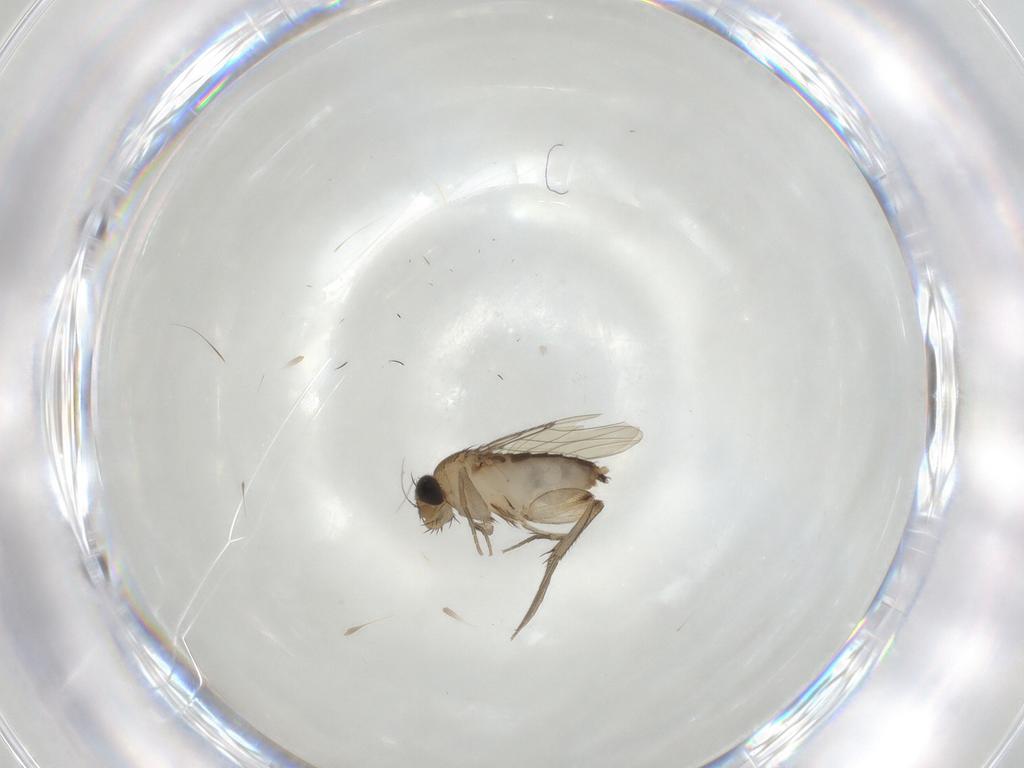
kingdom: Animalia
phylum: Arthropoda
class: Insecta
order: Diptera
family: Phoridae
